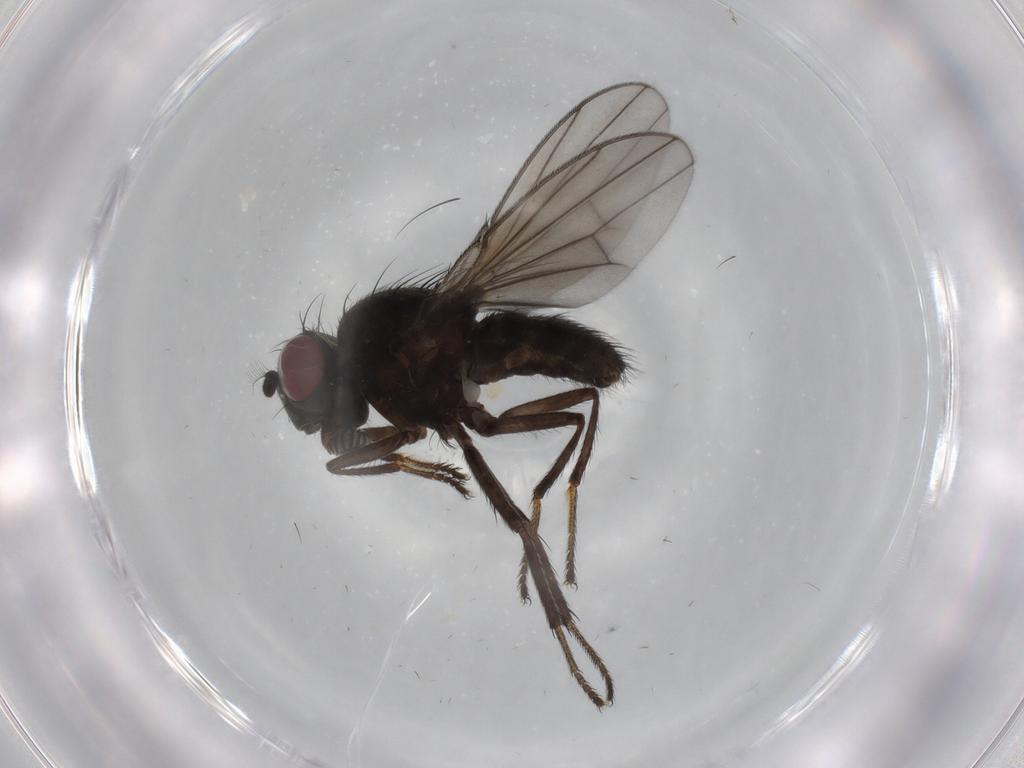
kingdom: Animalia
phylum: Arthropoda
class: Insecta
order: Diptera
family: Ephydridae
